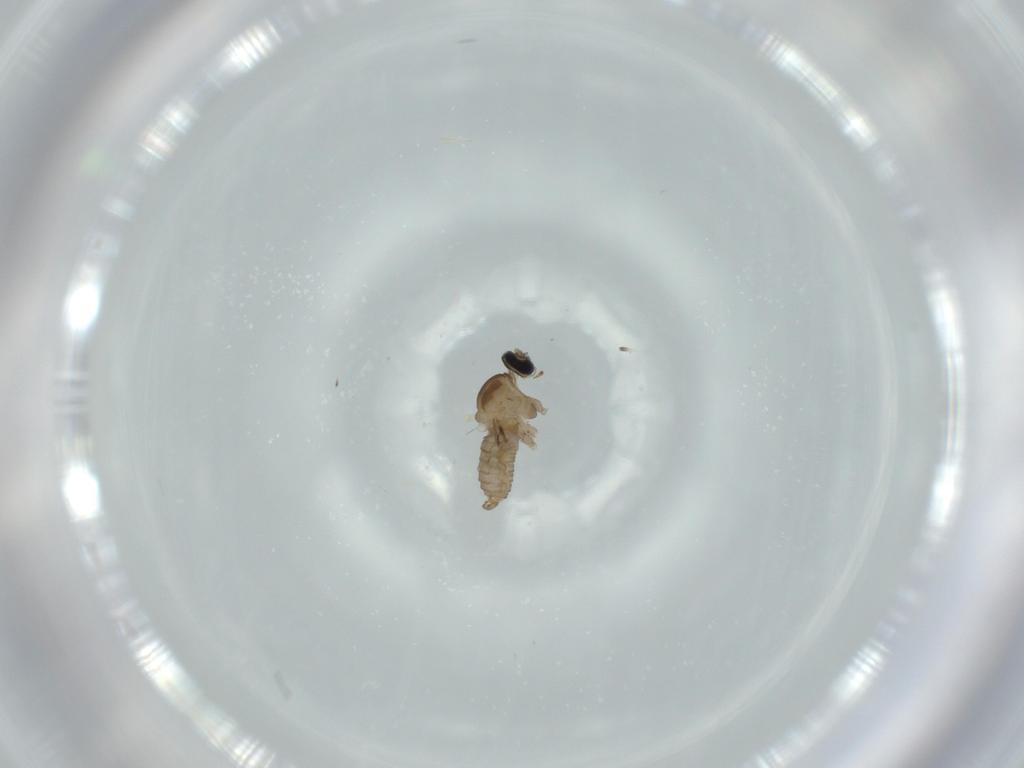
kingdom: Animalia
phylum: Arthropoda
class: Insecta
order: Diptera
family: Cecidomyiidae
